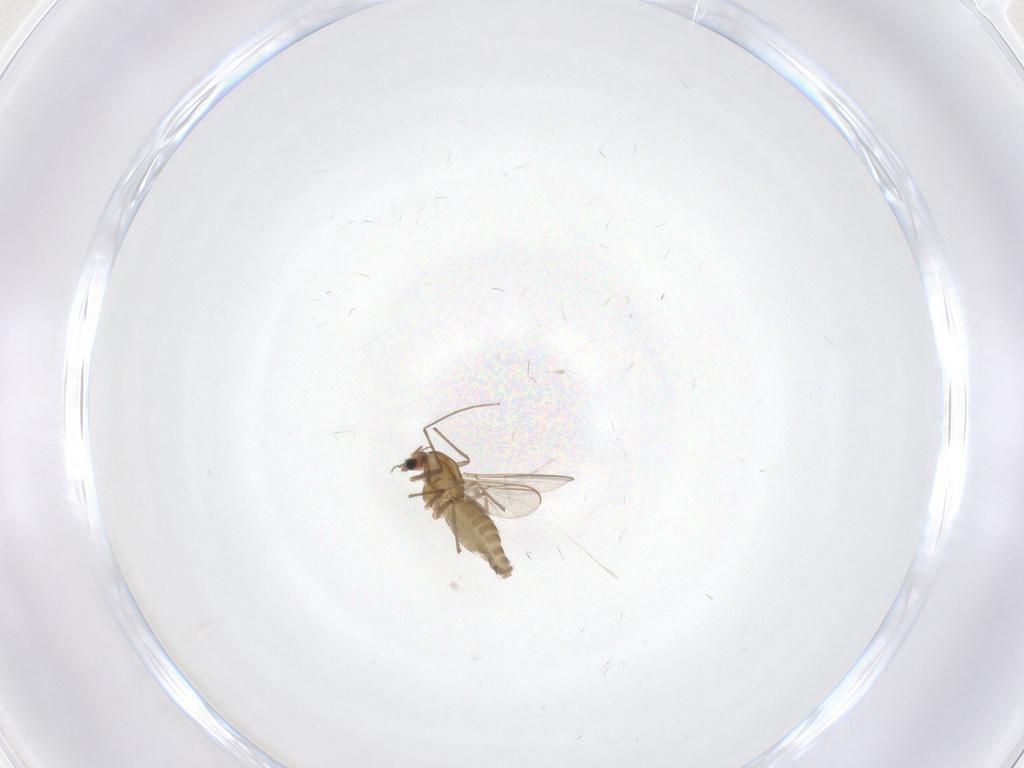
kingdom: Animalia
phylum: Arthropoda
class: Insecta
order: Diptera
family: Chironomidae
